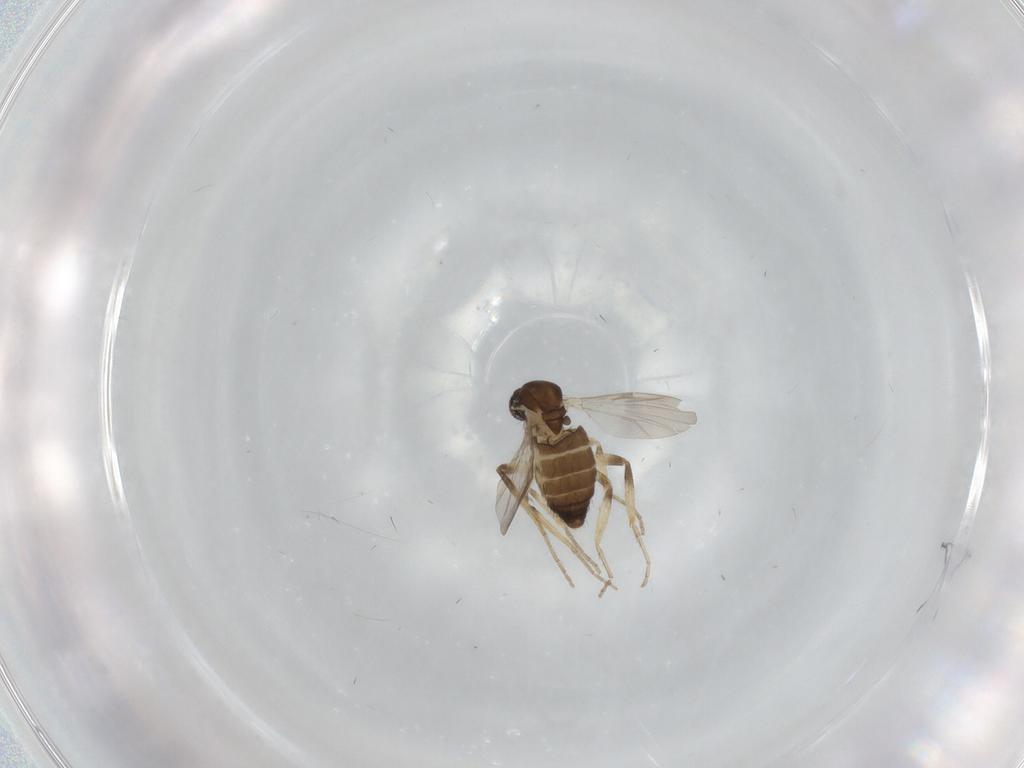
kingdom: Animalia
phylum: Arthropoda
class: Insecta
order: Diptera
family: Ceratopogonidae
